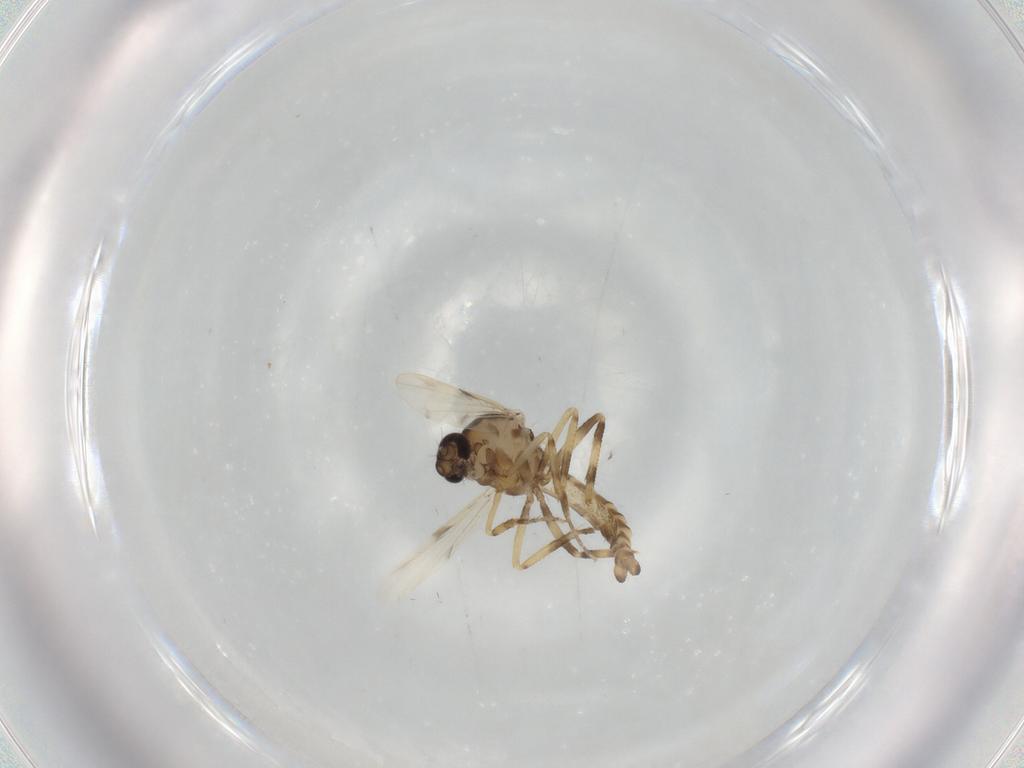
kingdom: Animalia
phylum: Arthropoda
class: Insecta
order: Diptera
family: Ceratopogonidae
